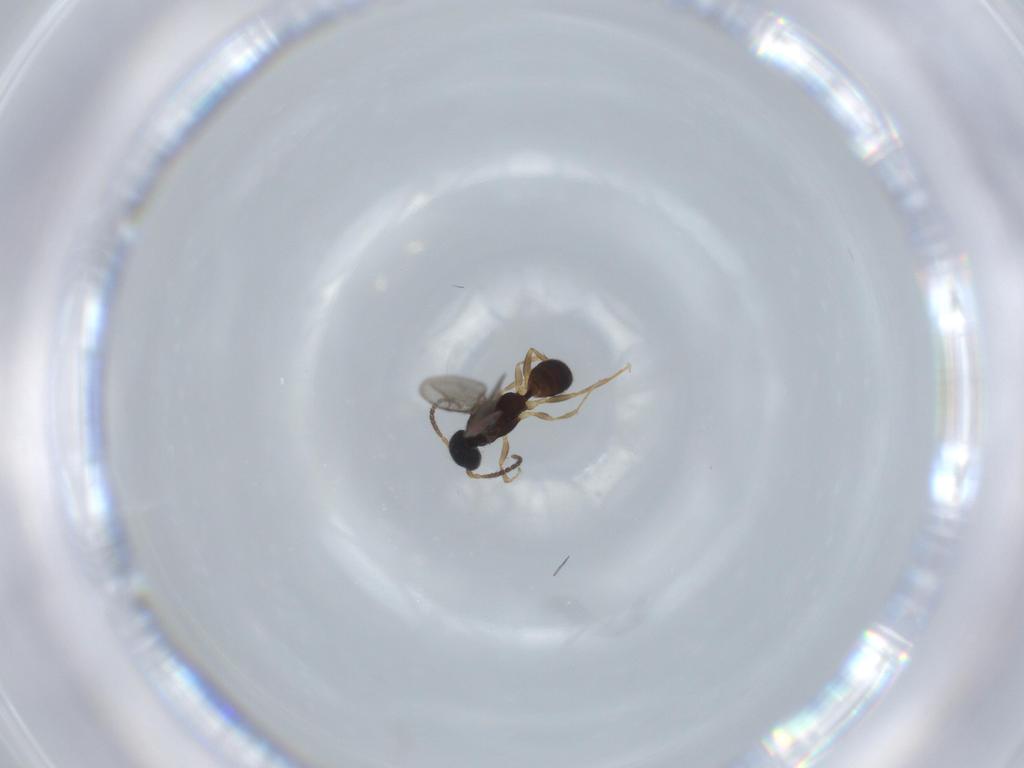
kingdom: Animalia
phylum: Arthropoda
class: Insecta
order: Hymenoptera
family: Bethylidae
